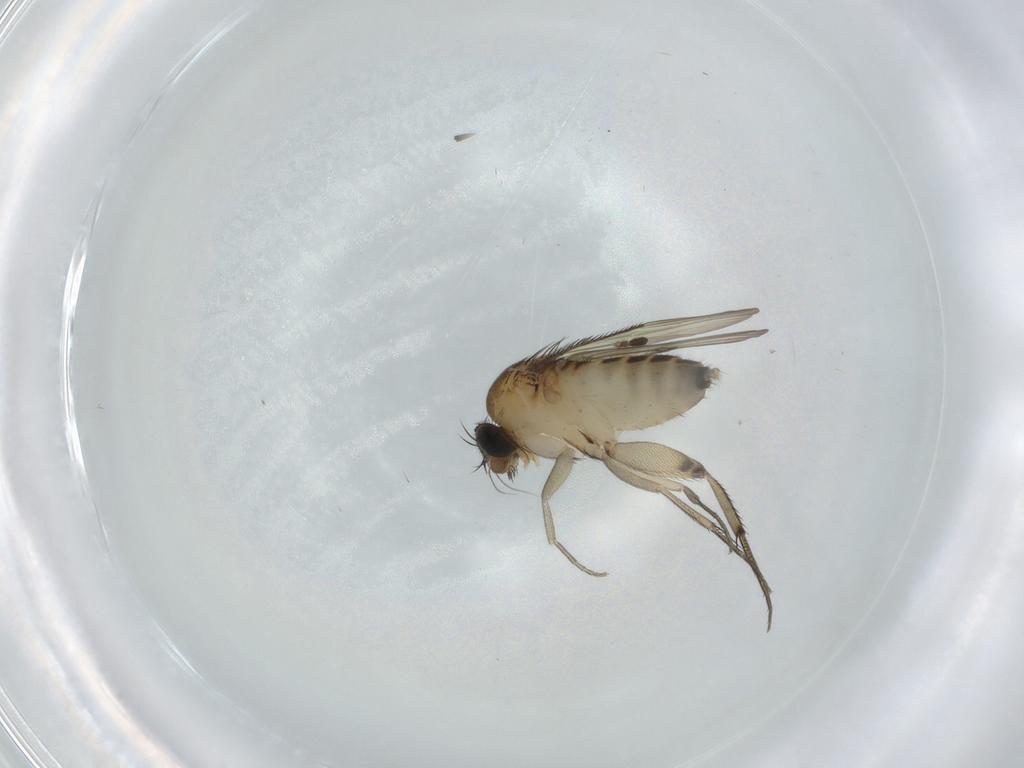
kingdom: Animalia
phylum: Arthropoda
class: Insecta
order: Diptera
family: Phoridae
